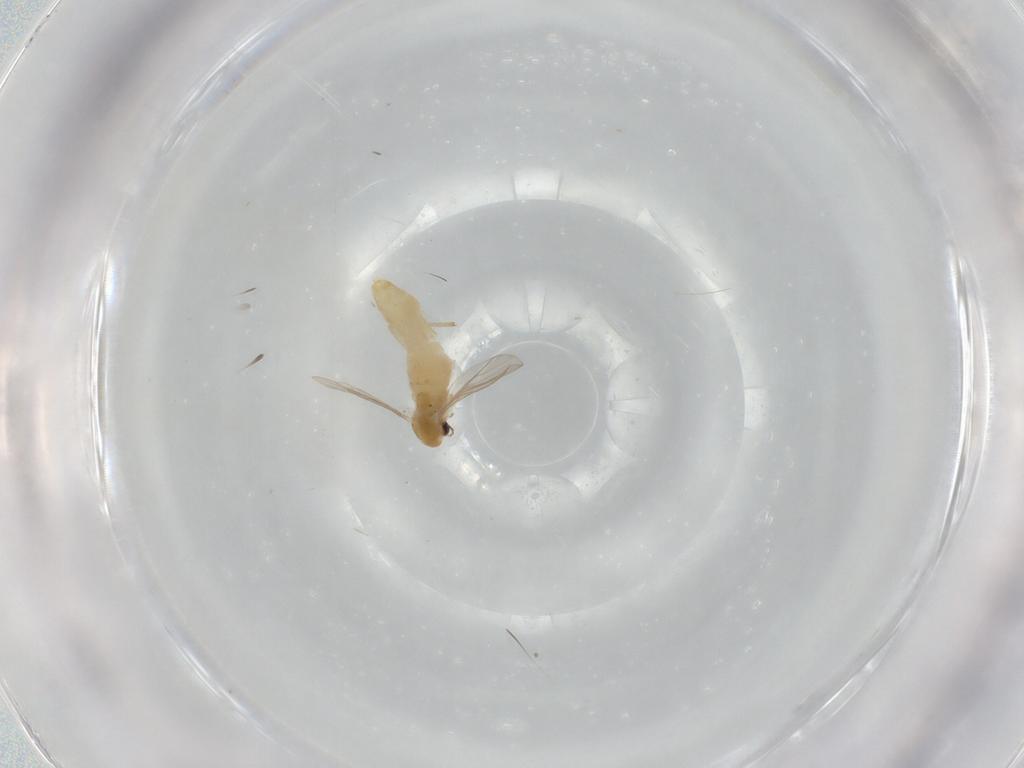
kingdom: Animalia
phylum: Arthropoda
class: Insecta
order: Diptera
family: Chironomidae
